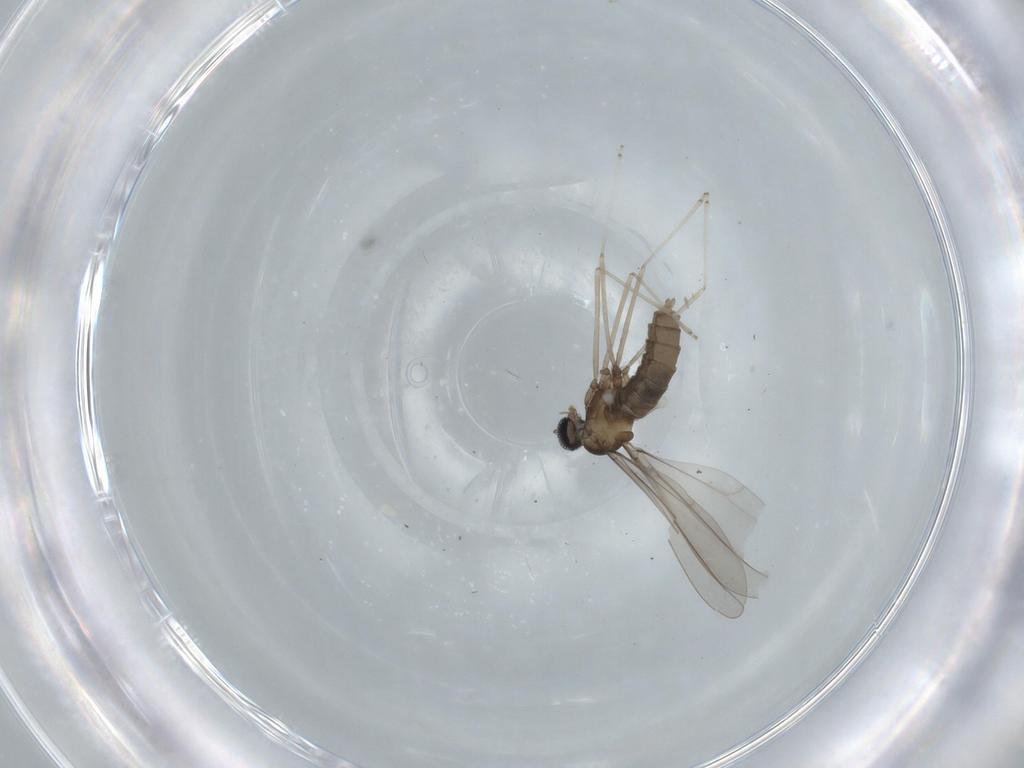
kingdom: Animalia
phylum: Arthropoda
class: Insecta
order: Diptera
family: Cecidomyiidae
